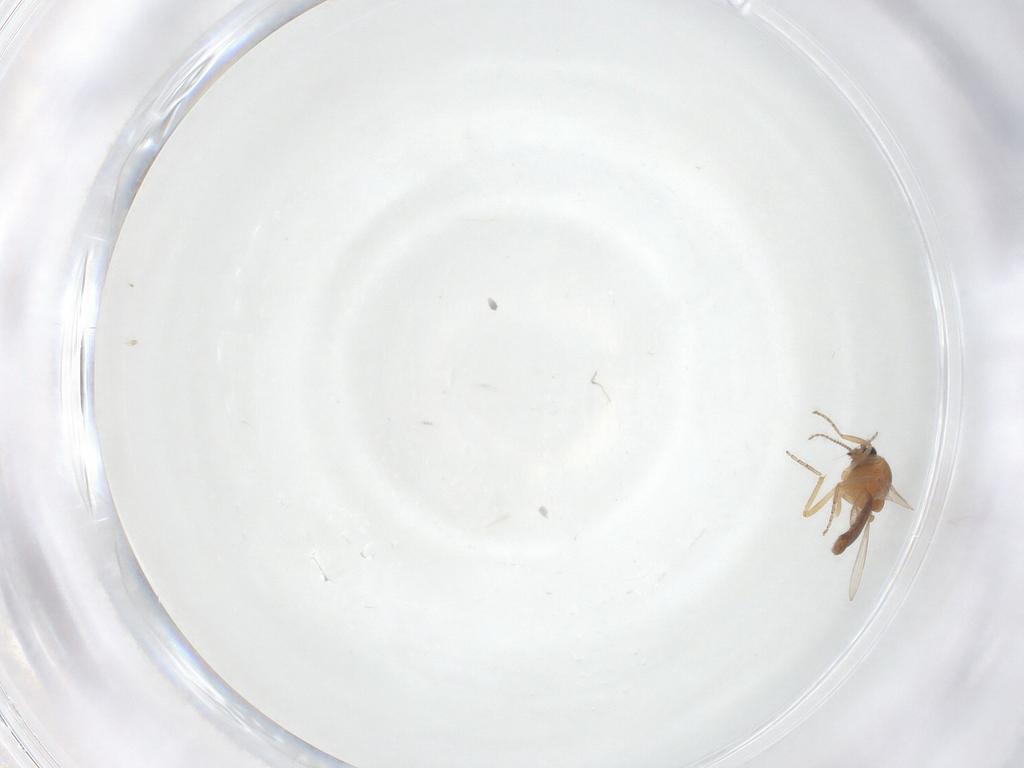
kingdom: Animalia
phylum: Arthropoda
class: Insecta
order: Diptera
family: Ceratopogonidae
